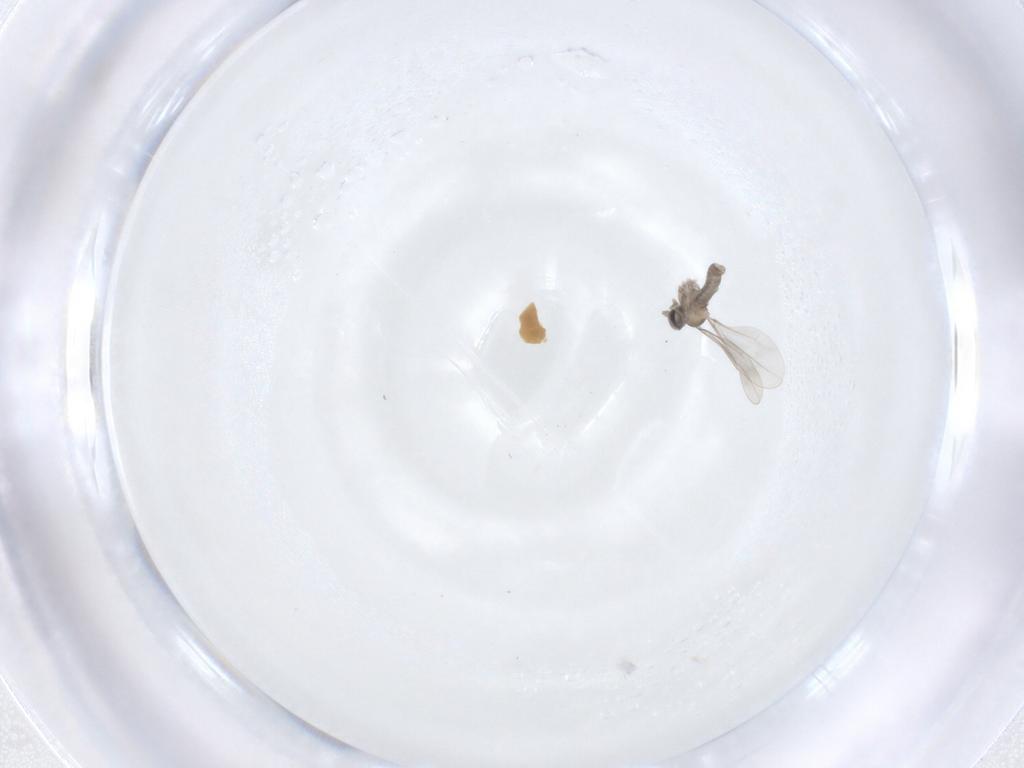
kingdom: Animalia
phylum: Arthropoda
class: Insecta
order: Diptera
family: Cecidomyiidae
